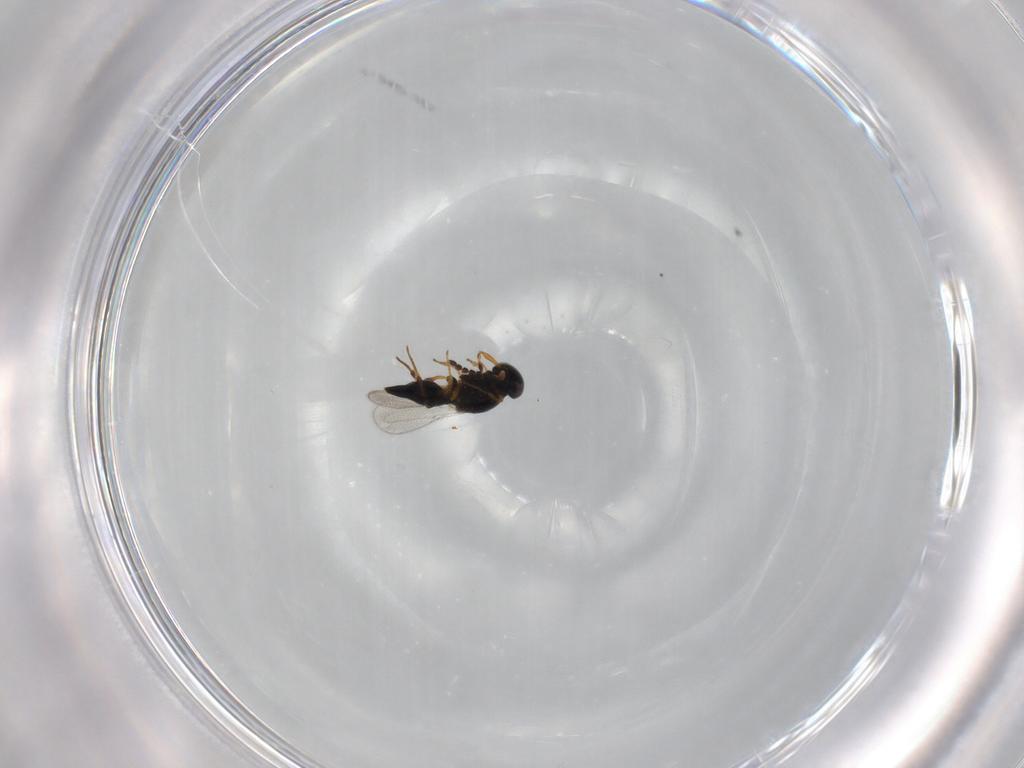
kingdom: Animalia
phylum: Arthropoda
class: Insecta
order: Hymenoptera
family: Platygastridae
